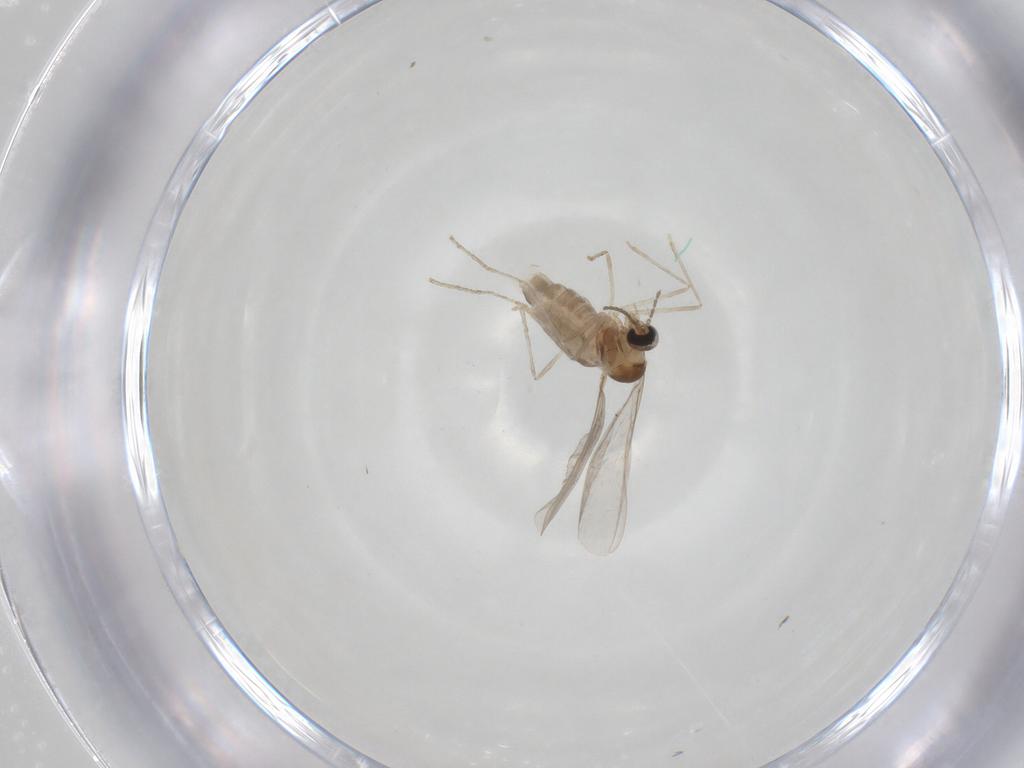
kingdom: Animalia
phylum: Arthropoda
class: Insecta
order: Diptera
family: Cecidomyiidae
